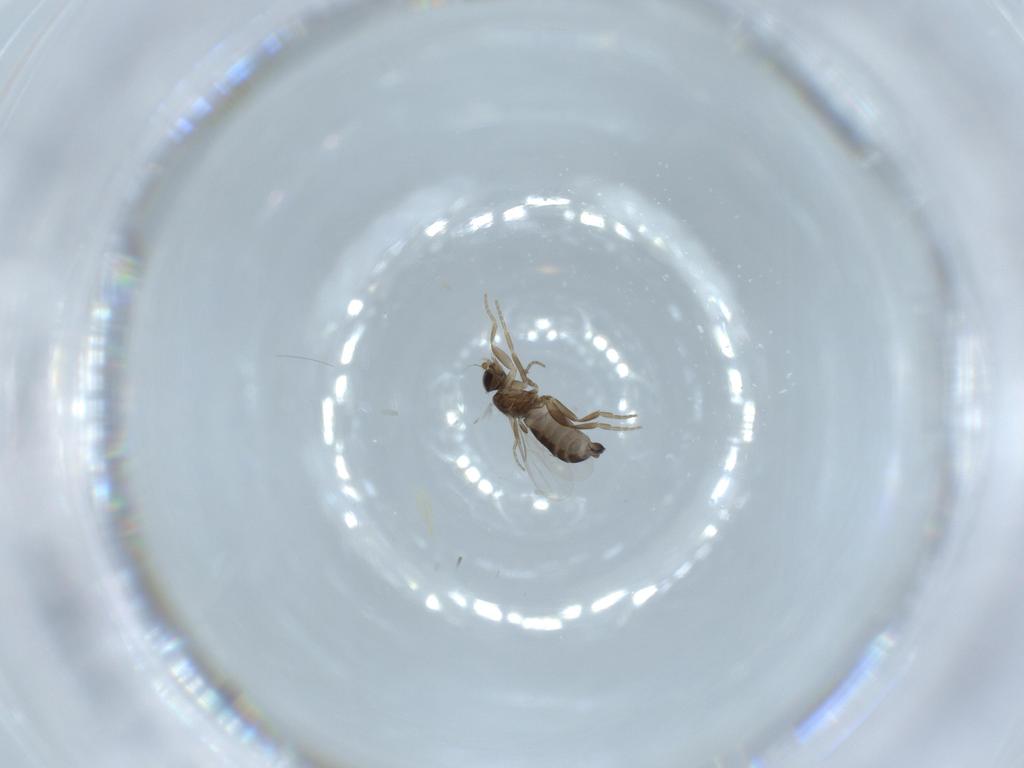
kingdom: Animalia
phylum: Arthropoda
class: Insecta
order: Diptera
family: Phoridae
